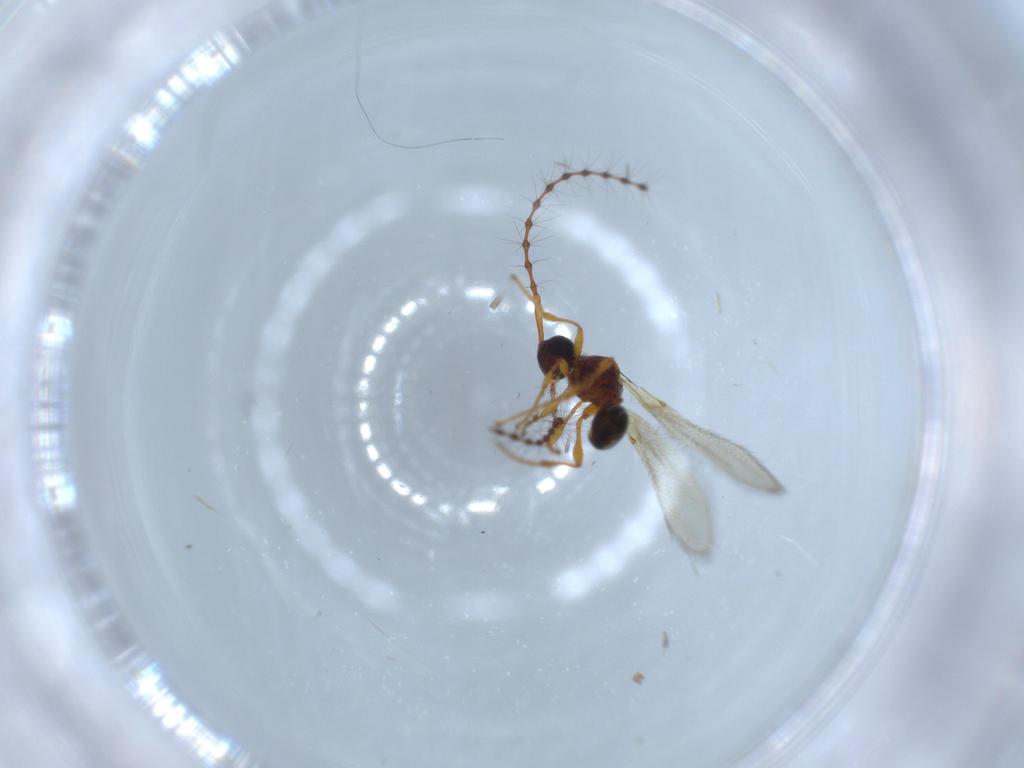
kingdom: Animalia
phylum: Arthropoda
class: Insecta
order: Hymenoptera
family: Diapriidae
